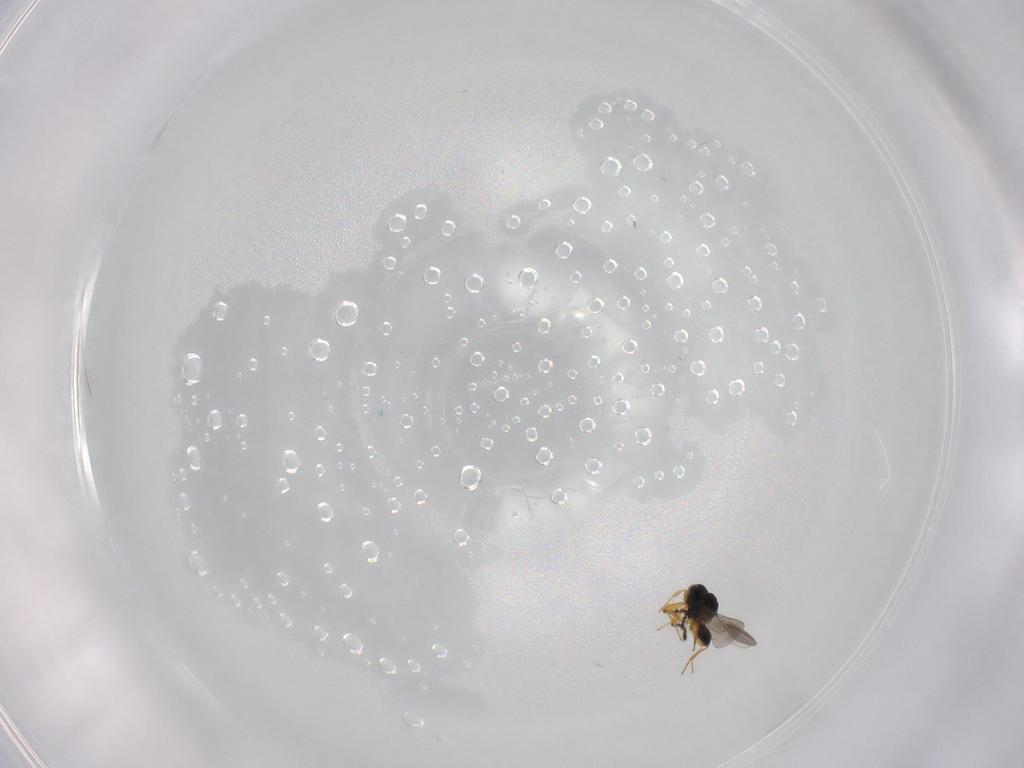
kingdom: Animalia
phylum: Arthropoda
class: Insecta
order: Hymenoptera
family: Platygastridae
